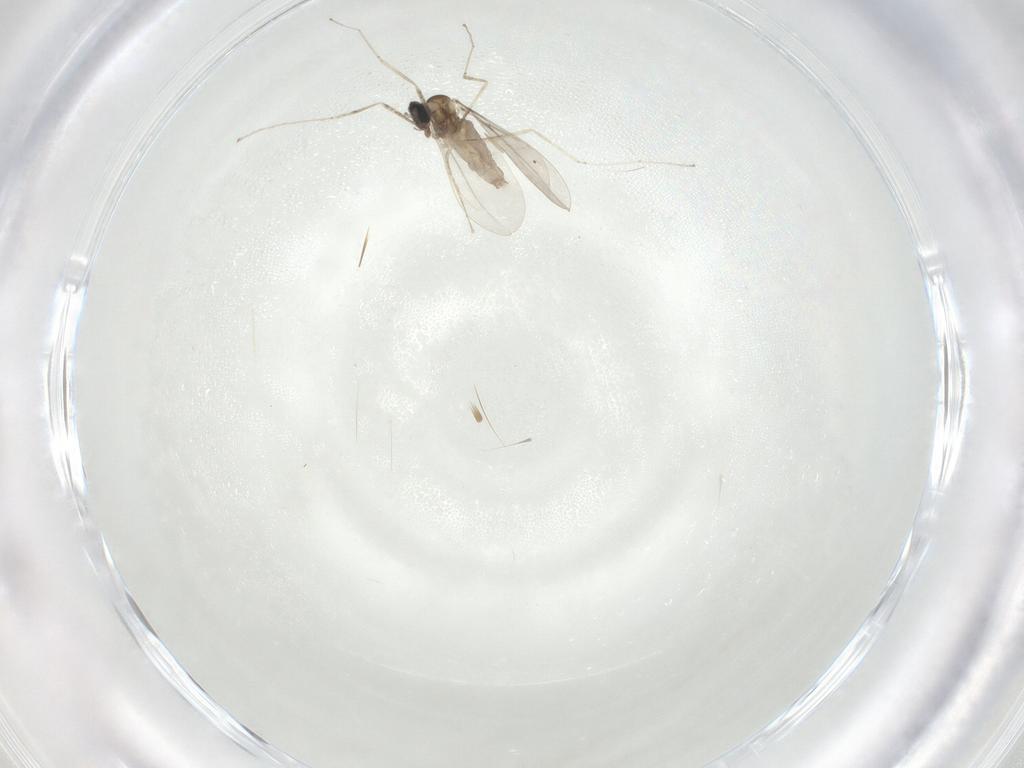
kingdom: Animalia
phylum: Arthropoda
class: Insecta
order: Diptera
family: Cecidomyiidae
